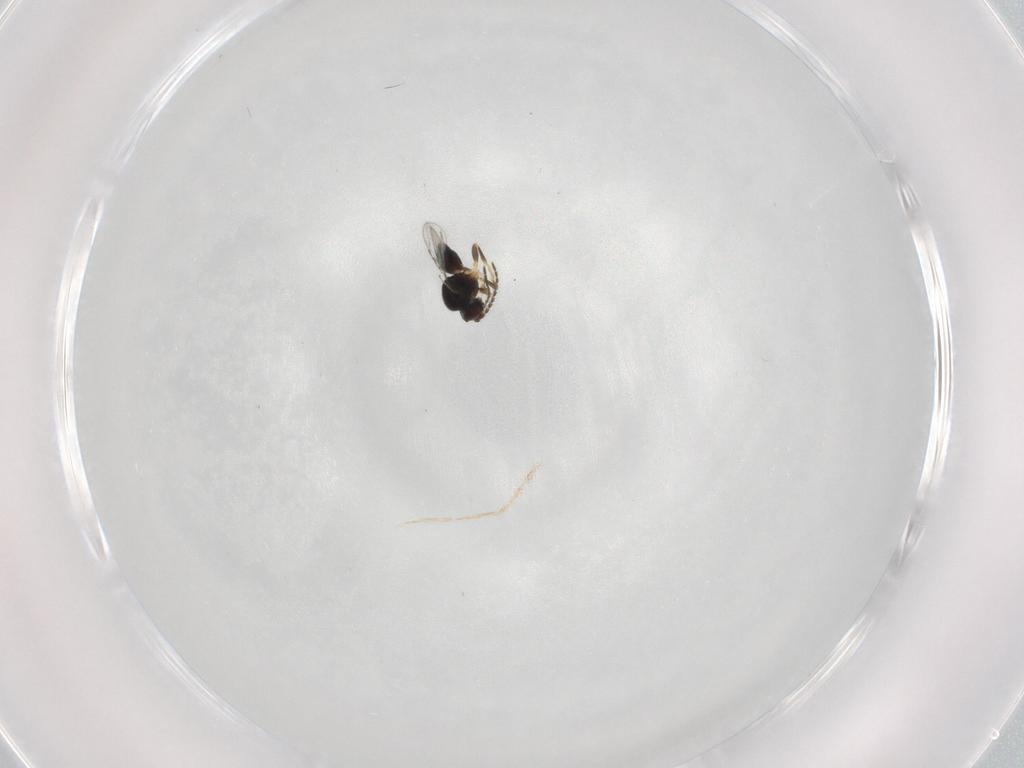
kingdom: Animalia
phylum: Arthropoda
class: Insecta
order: Hymenoptera
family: Ceraphronidae
